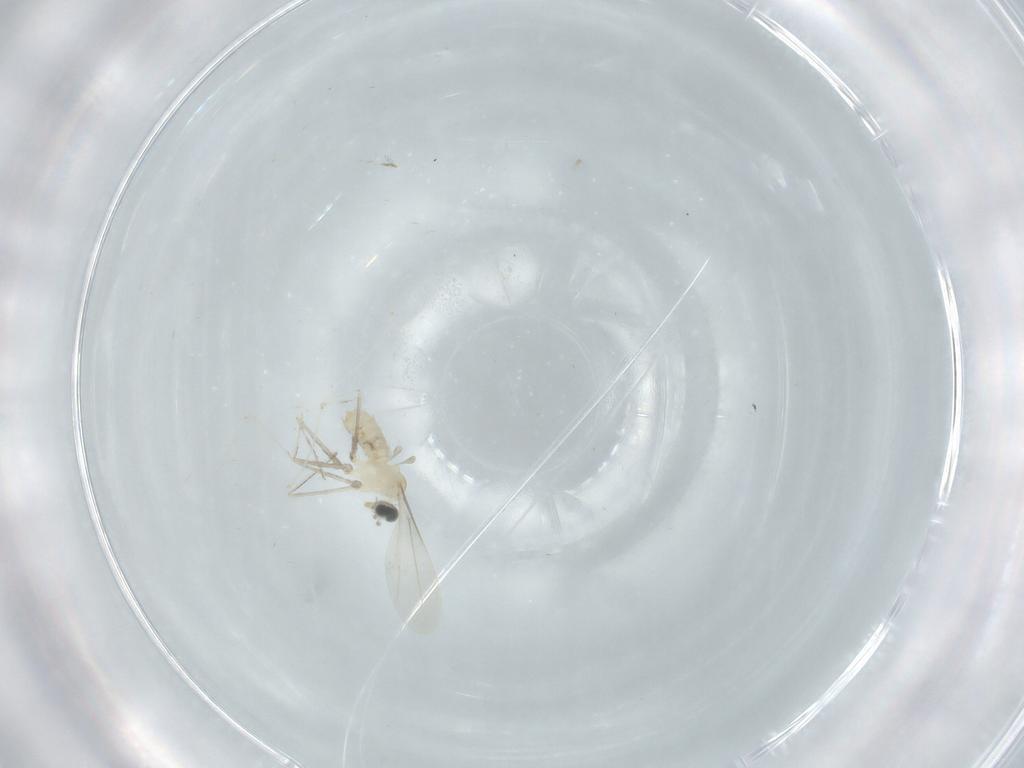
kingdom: Animalia
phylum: Arthropoda
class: Insecta
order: Diptera
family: Cecidomyiidae
